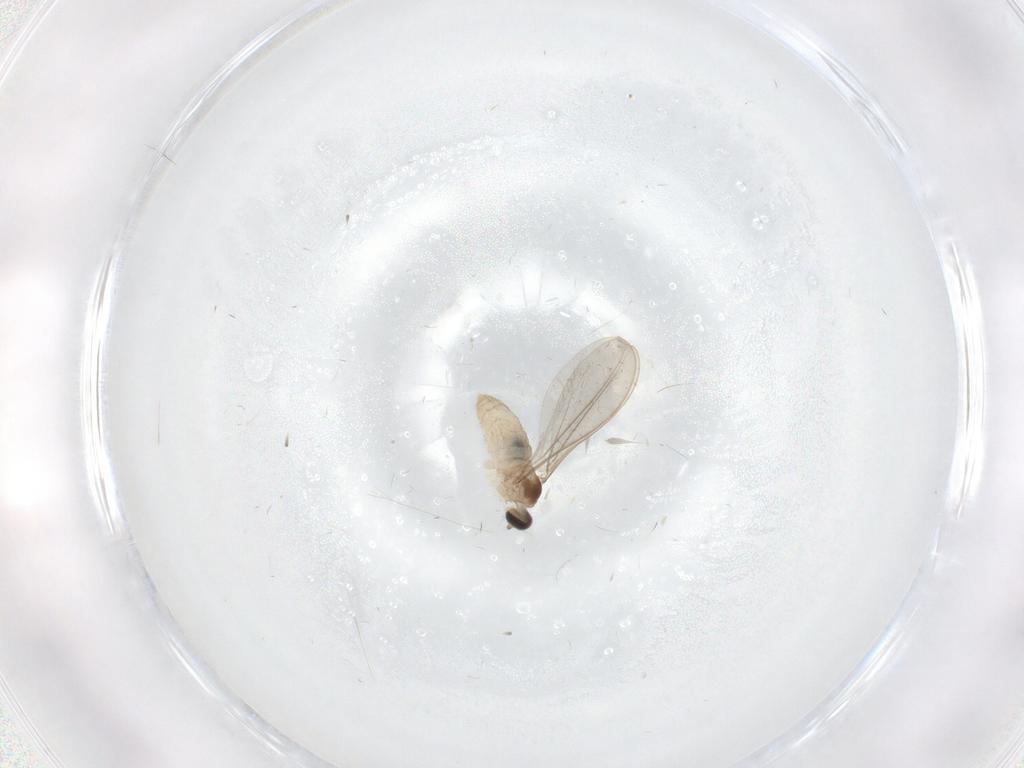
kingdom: Animalia
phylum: Arthropoda
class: Insecta
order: Diptera
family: Cecidomyiidae
